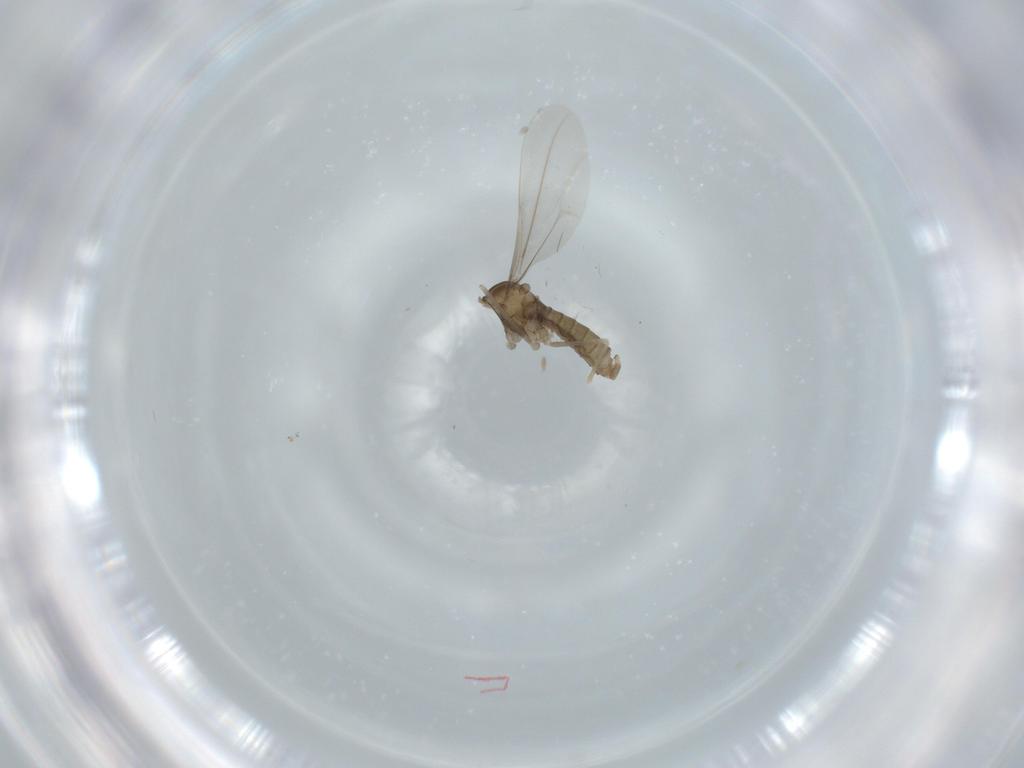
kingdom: Animalia
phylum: Arthropoda
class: Insecta
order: Diptera
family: Cecidomyiidae
